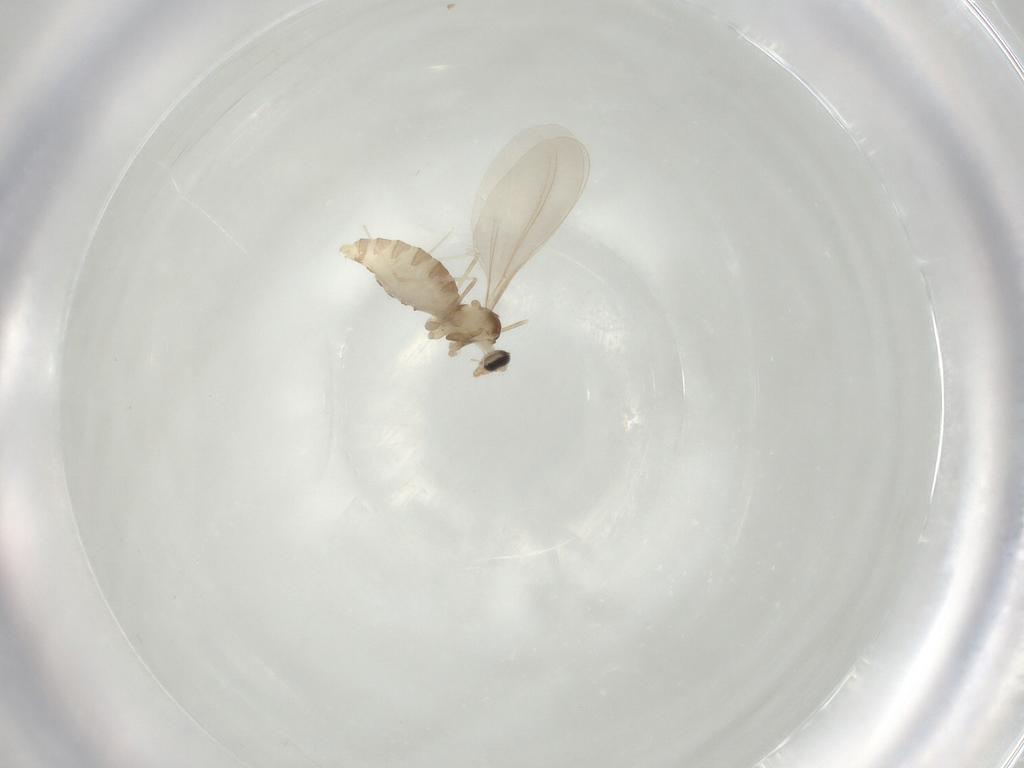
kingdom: Animalia
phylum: Arthropoda
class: Insecta
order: Diptera
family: Cecidomyiidae
